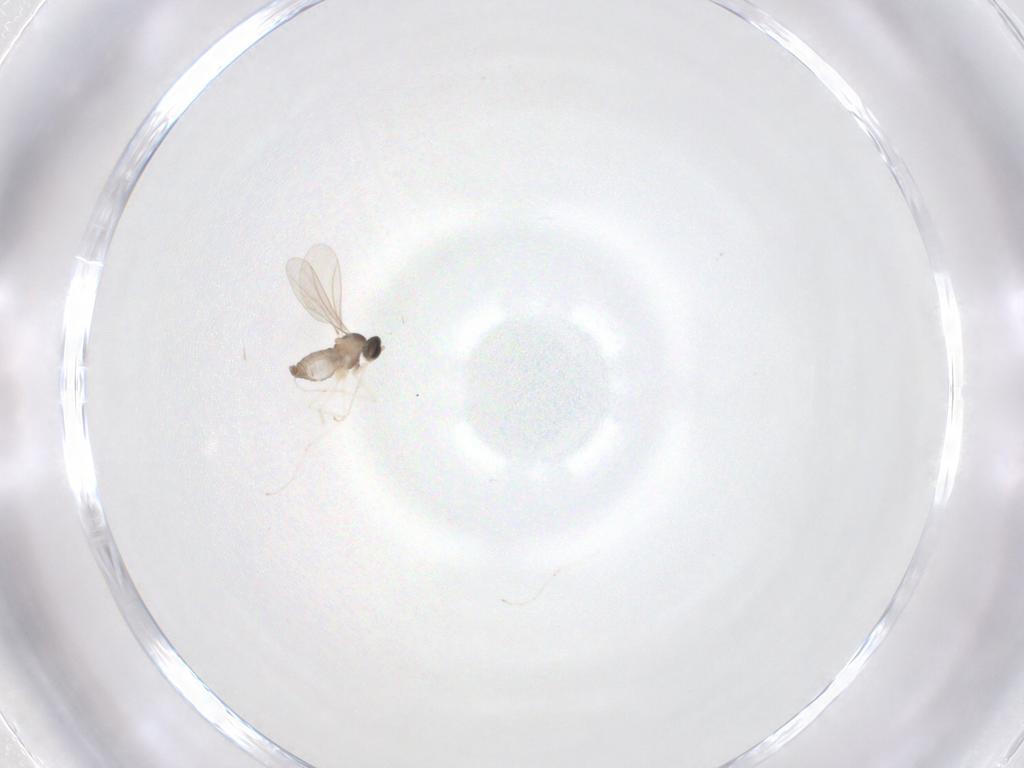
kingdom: Animalia
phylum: Arthropoda
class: Insecta
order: Diptera
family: Cecidomyiidae
